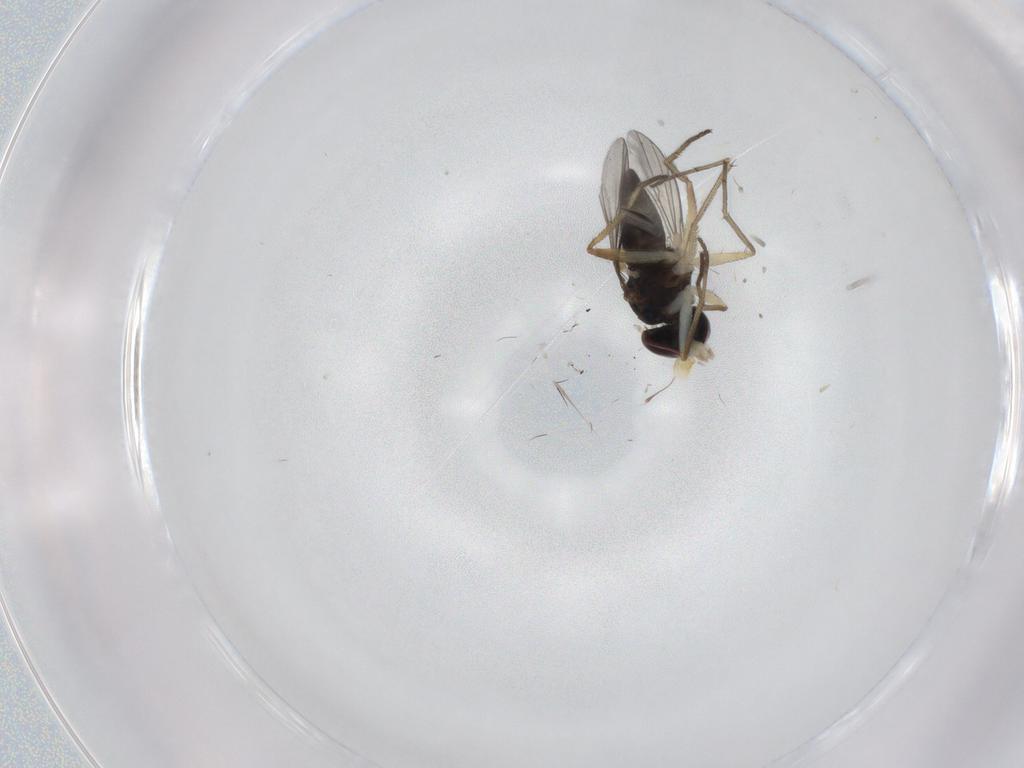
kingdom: Animalia
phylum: Arthropoda
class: Insecta
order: Diptera
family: Dolichopodidae
